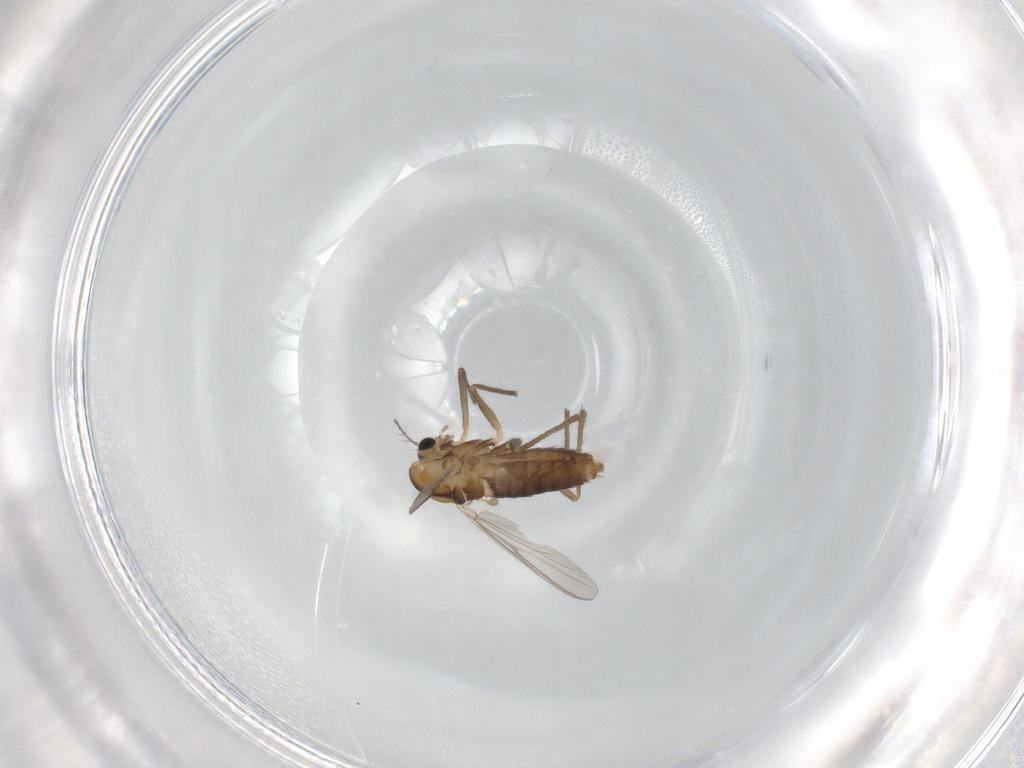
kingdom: Animalia
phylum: Arthropoda
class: Insecta
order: Diptera
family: Chironomidae
